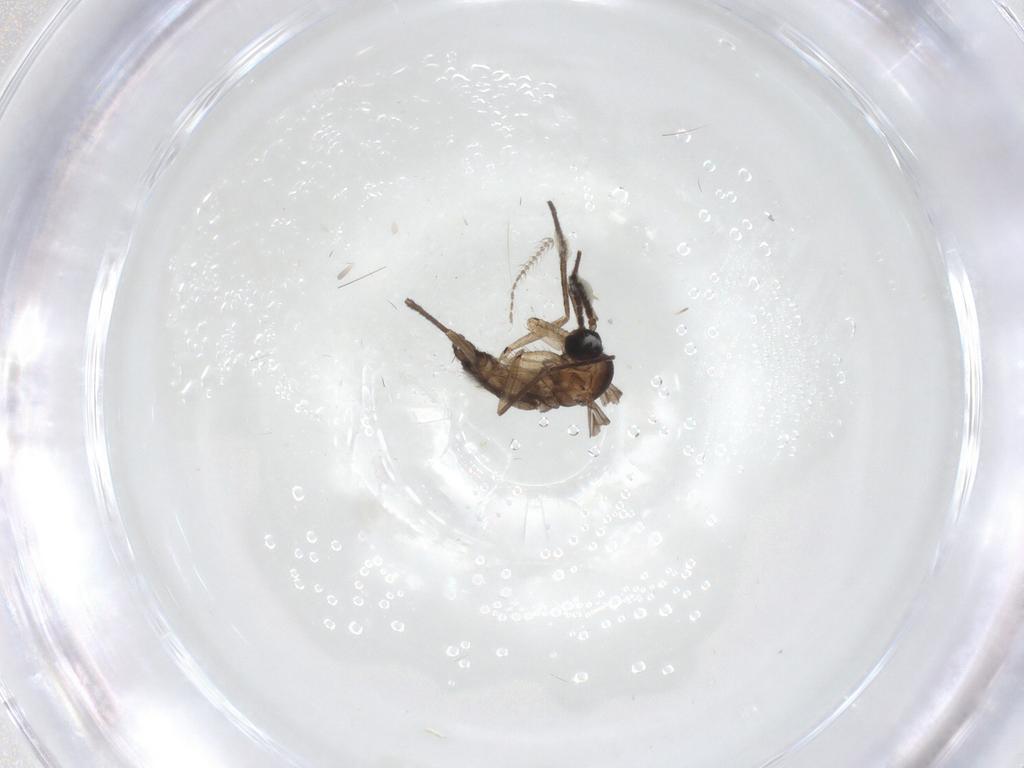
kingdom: Animalia
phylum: Arthropoda
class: Insecta
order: Diptera
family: Sciaridae
